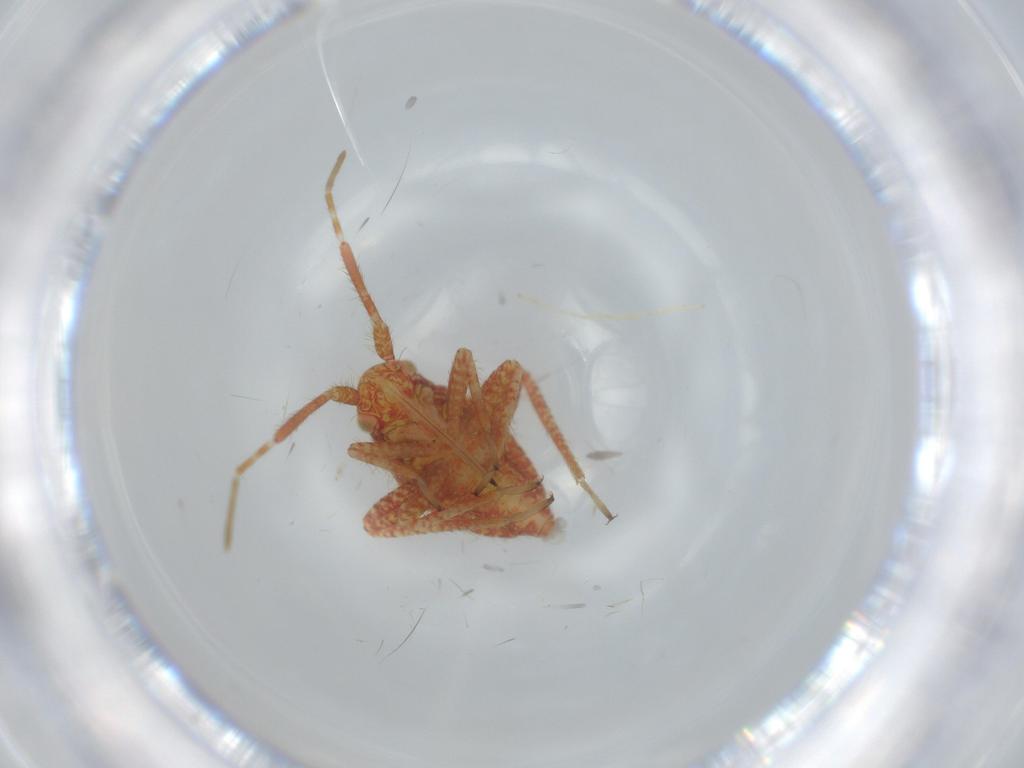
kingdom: Animalia
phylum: Arthropoda
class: Insecta
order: Hemiptera
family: Miridae
